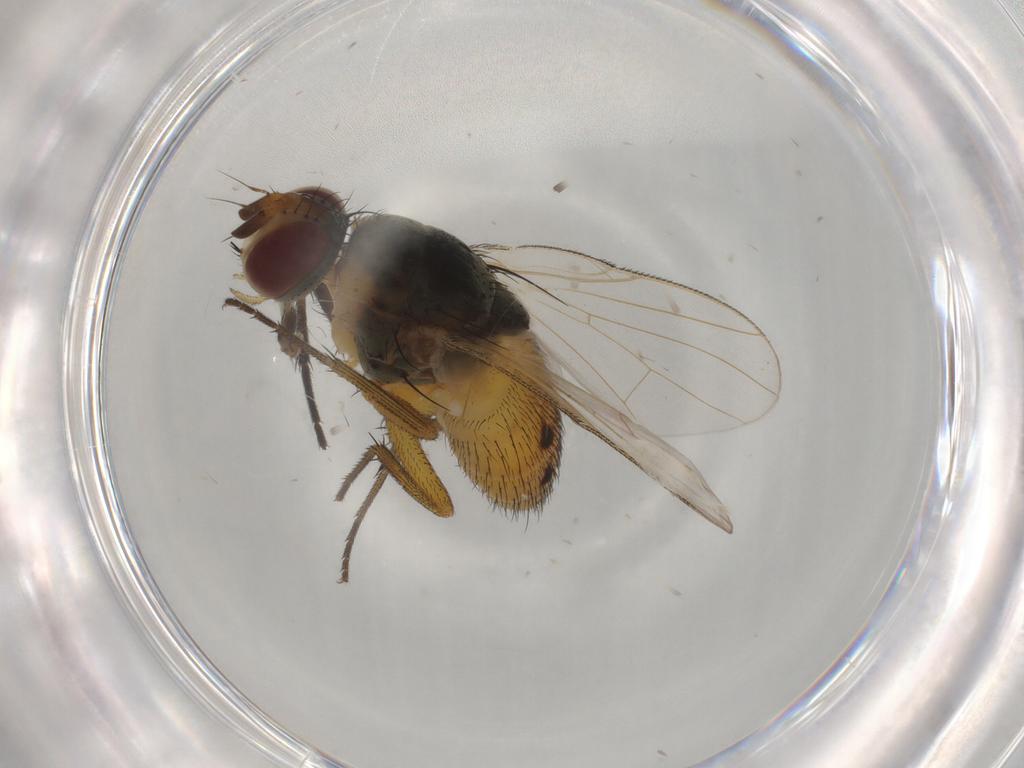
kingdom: Animalia
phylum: Arthropoda
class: Insecta
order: Diptera
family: Muscidae
